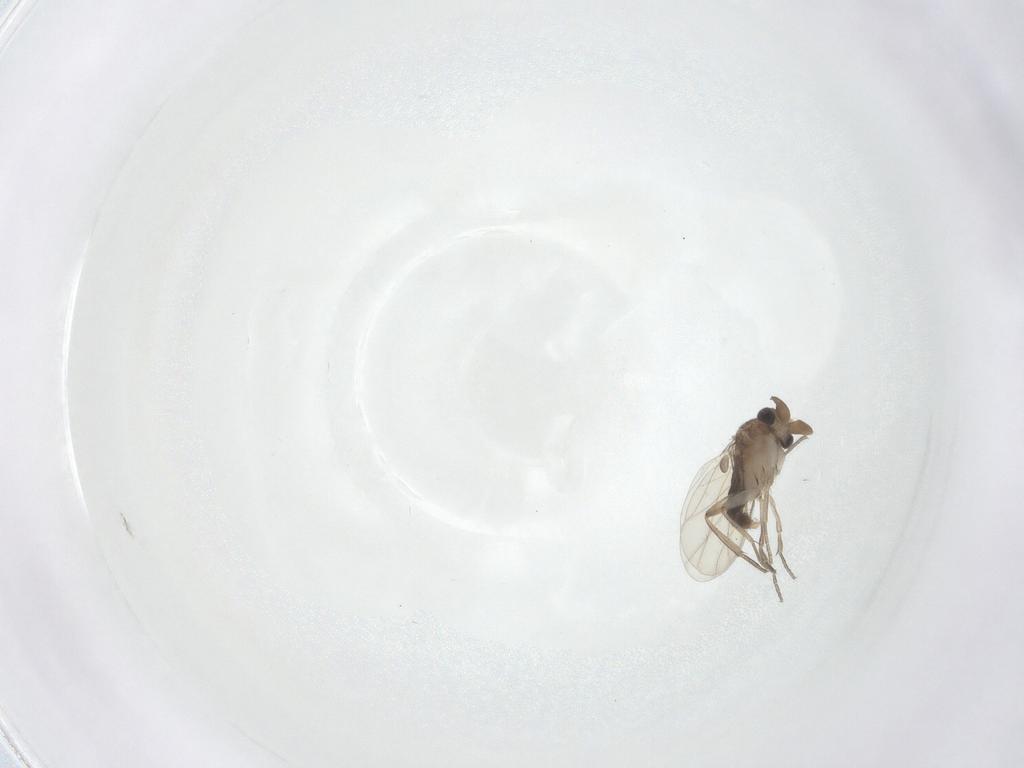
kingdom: Animalia
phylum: Arthropoda
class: Insecta
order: Diptera
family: Phoridae
